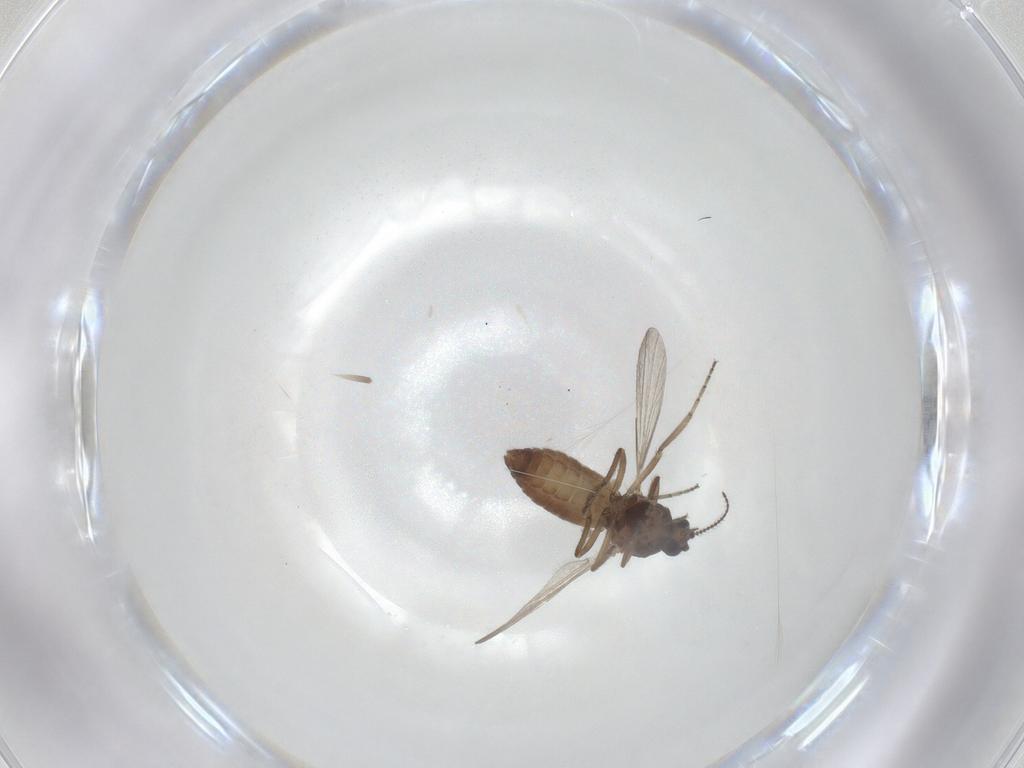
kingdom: Animalia
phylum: Arthropoda
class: Insecta
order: Diptera
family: Ceratopogonidae
